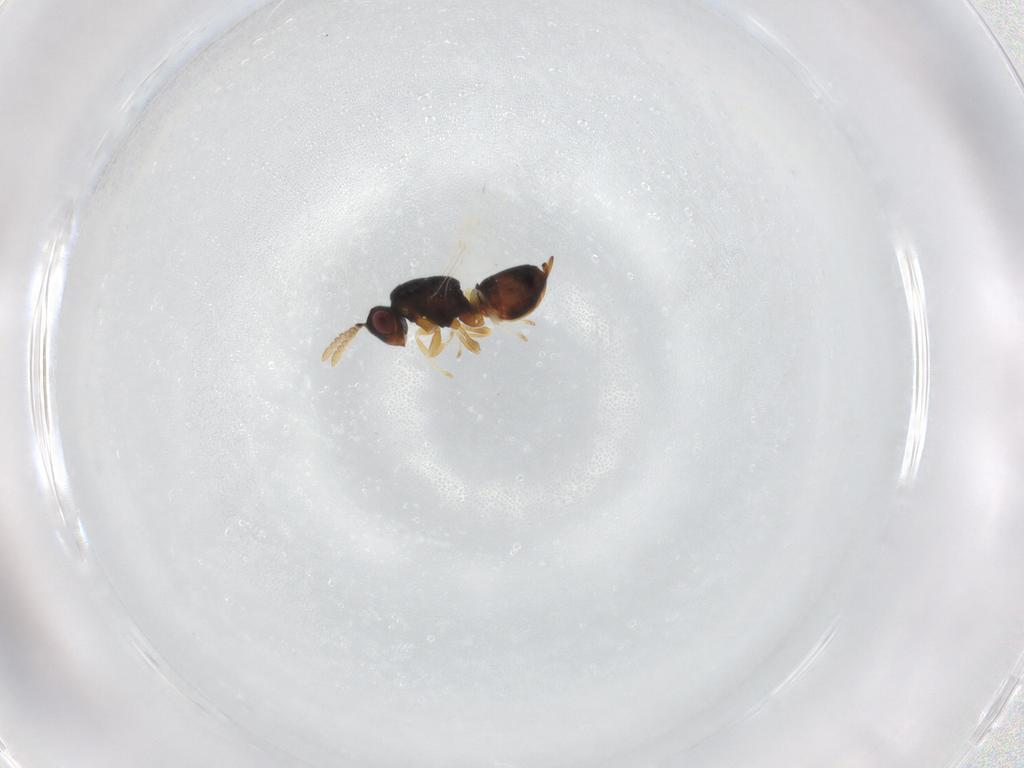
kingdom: Animalia
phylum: Arthropoda
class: Insecta
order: Hymenoptera
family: Eurytomidae
